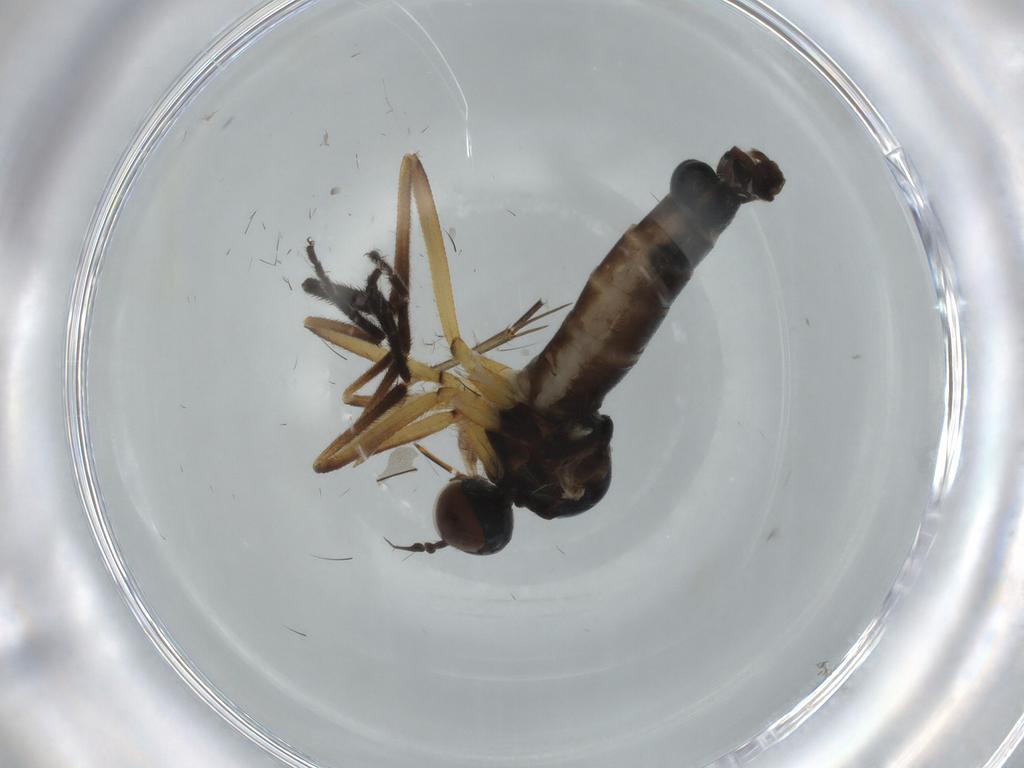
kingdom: Animalia
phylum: Arthropoda
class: Insecta
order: Diptera
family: Empididae
